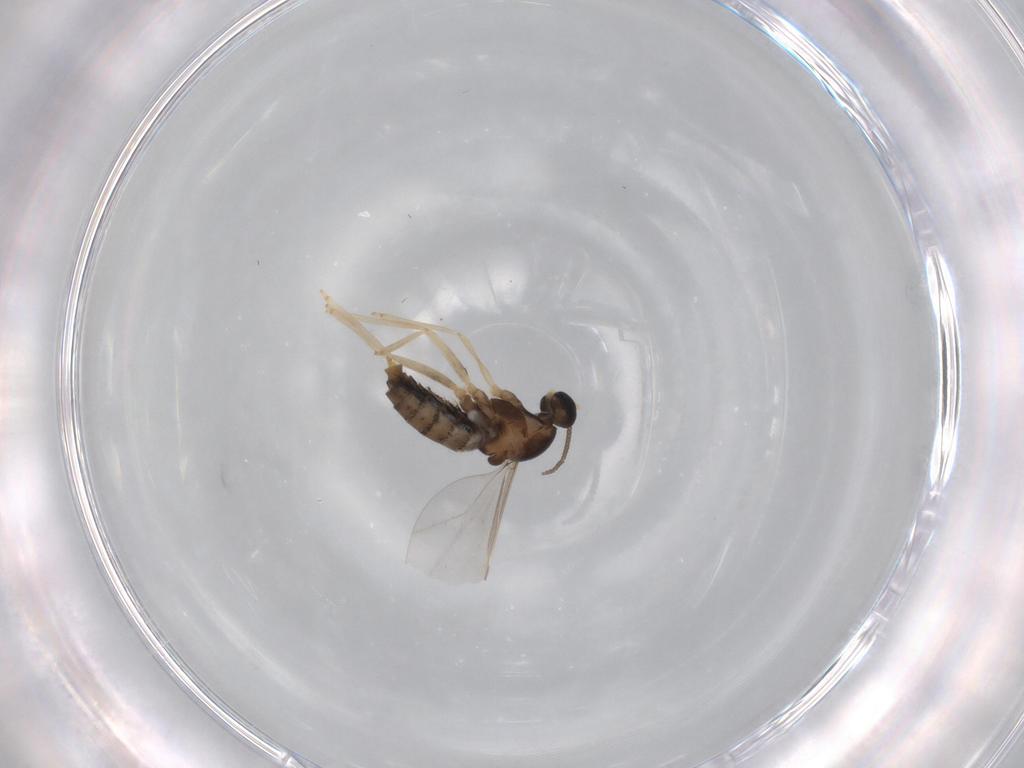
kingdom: Animalia
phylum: Arthropoda
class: Insecta
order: Diptera
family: Cecidomyiidae
